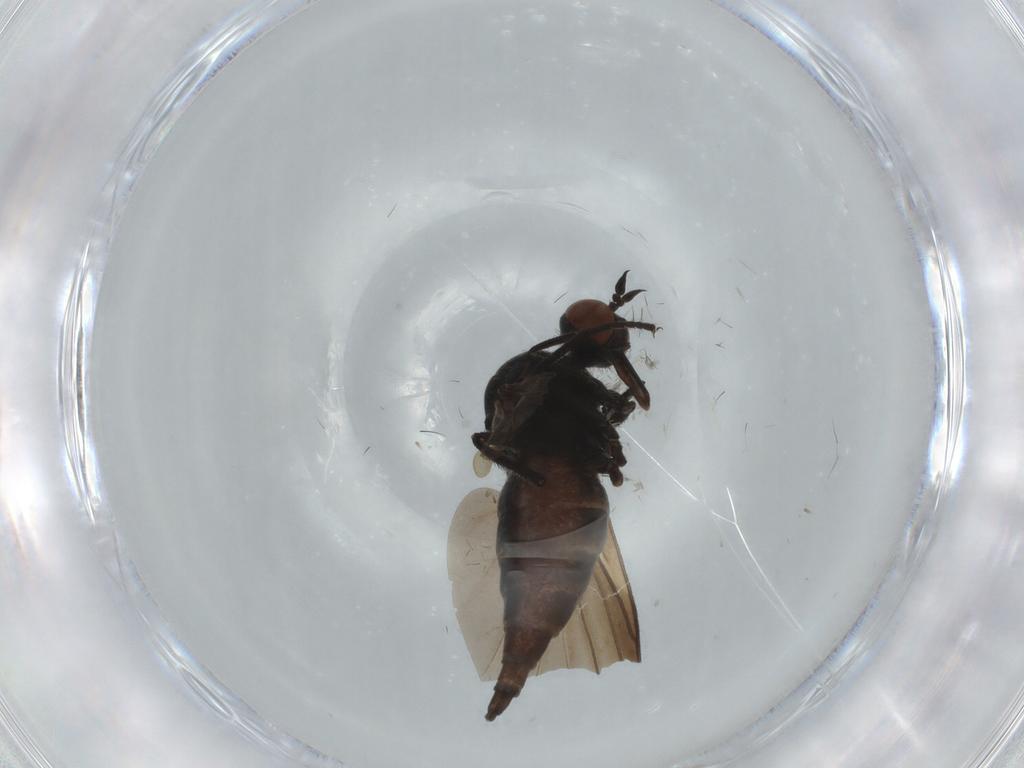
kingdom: Animalia
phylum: Arthropoda
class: Insecta
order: Diptera
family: Empididae
